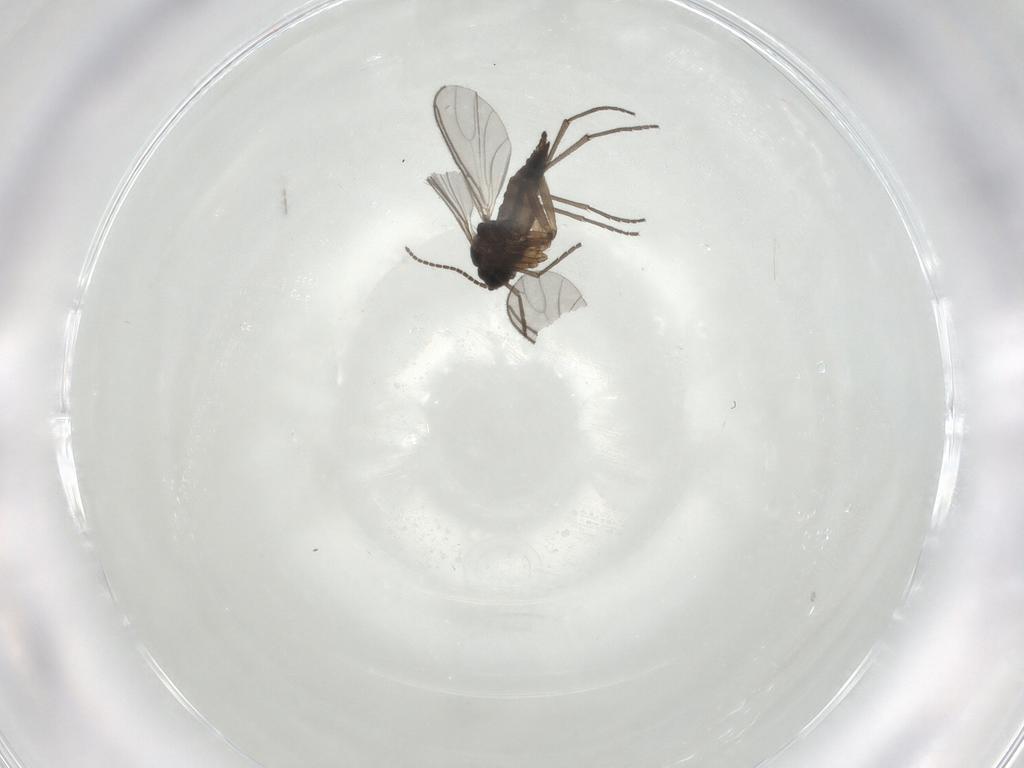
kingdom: Animalia
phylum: Arthropoda
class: Insecta
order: Diptera
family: Sciaridae
